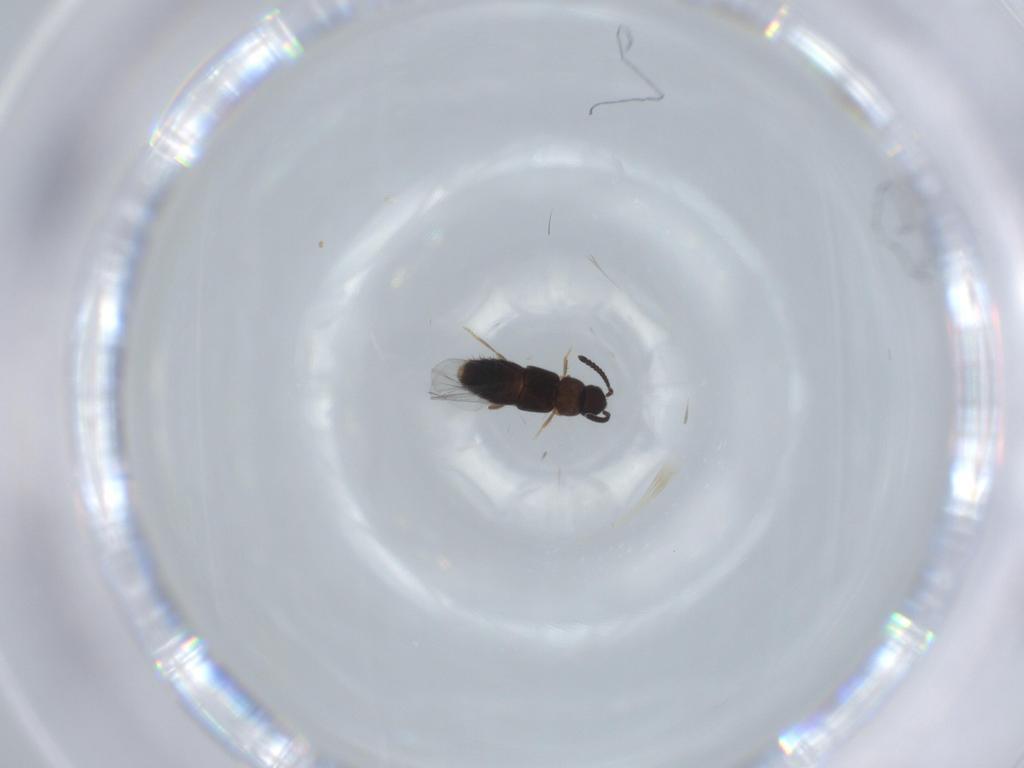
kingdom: Animalia
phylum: Arthropoda
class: Insecta
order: Coleoptera
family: Staphylinidae
